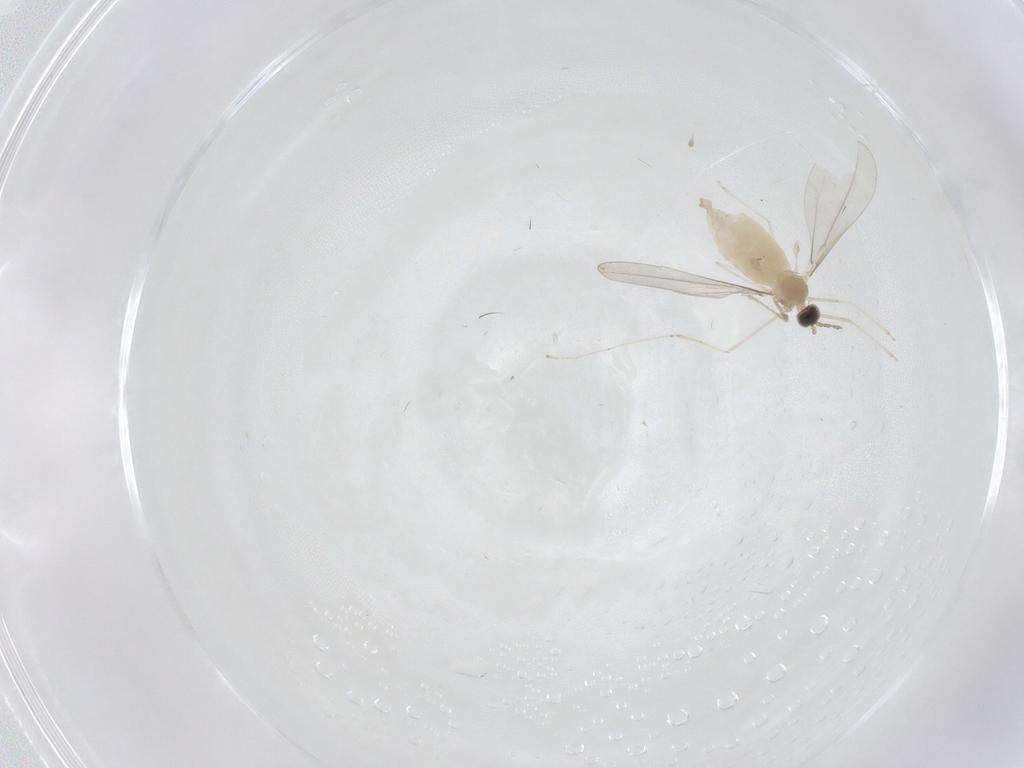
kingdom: Animalia
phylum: Arthropoda
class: Insecta
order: Diptera
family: Cecidomyiidae
